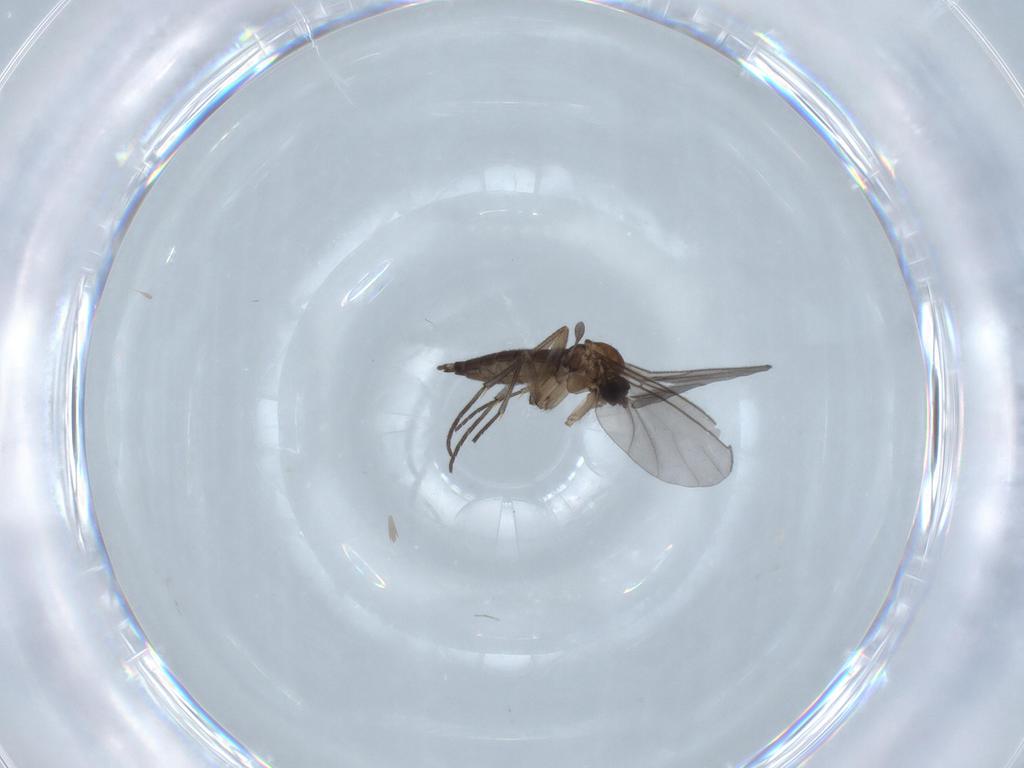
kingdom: Animalia
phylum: Arthropoda
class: Insecta
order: Diptera
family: Sciaridae
